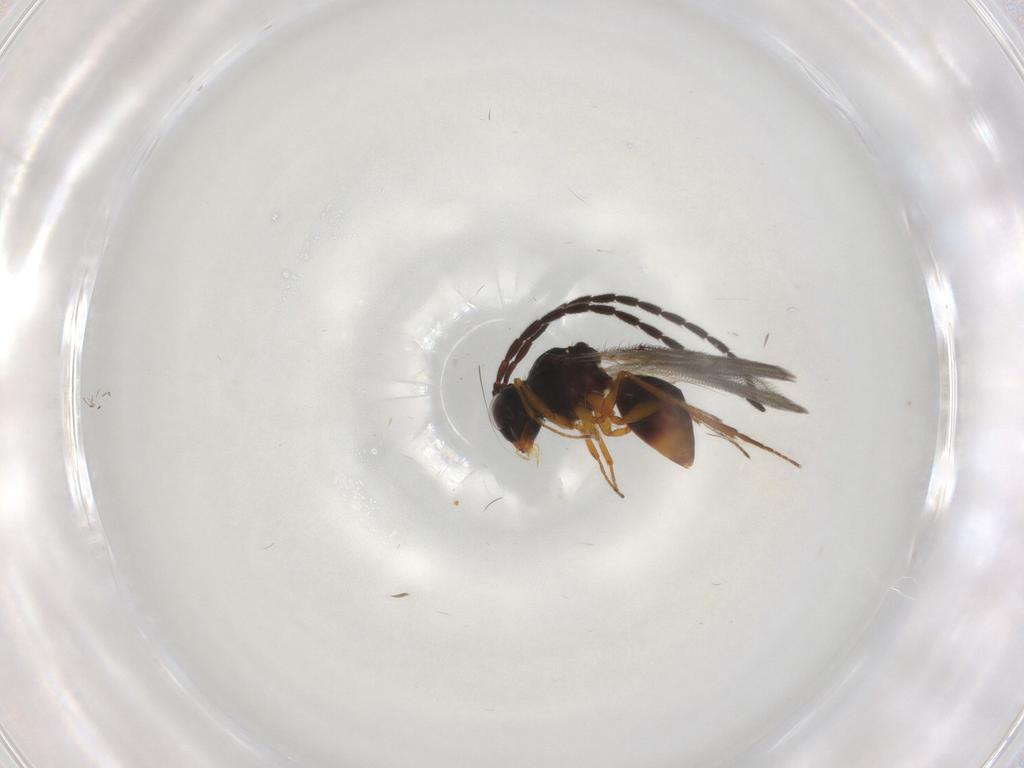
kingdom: Animalia
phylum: Arthropoda
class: Insecta
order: Hymenoptera
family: Figitidae
